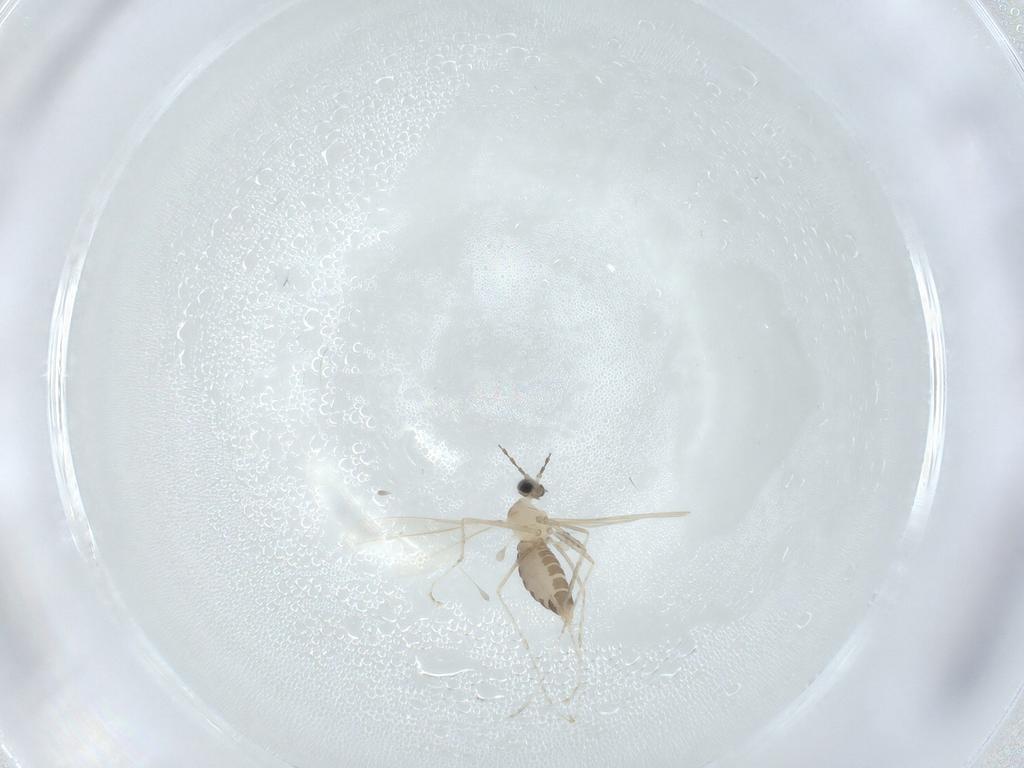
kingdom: Animalia
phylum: Arthropoda
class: Insecta
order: Diptera
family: Cecidomyiidae
